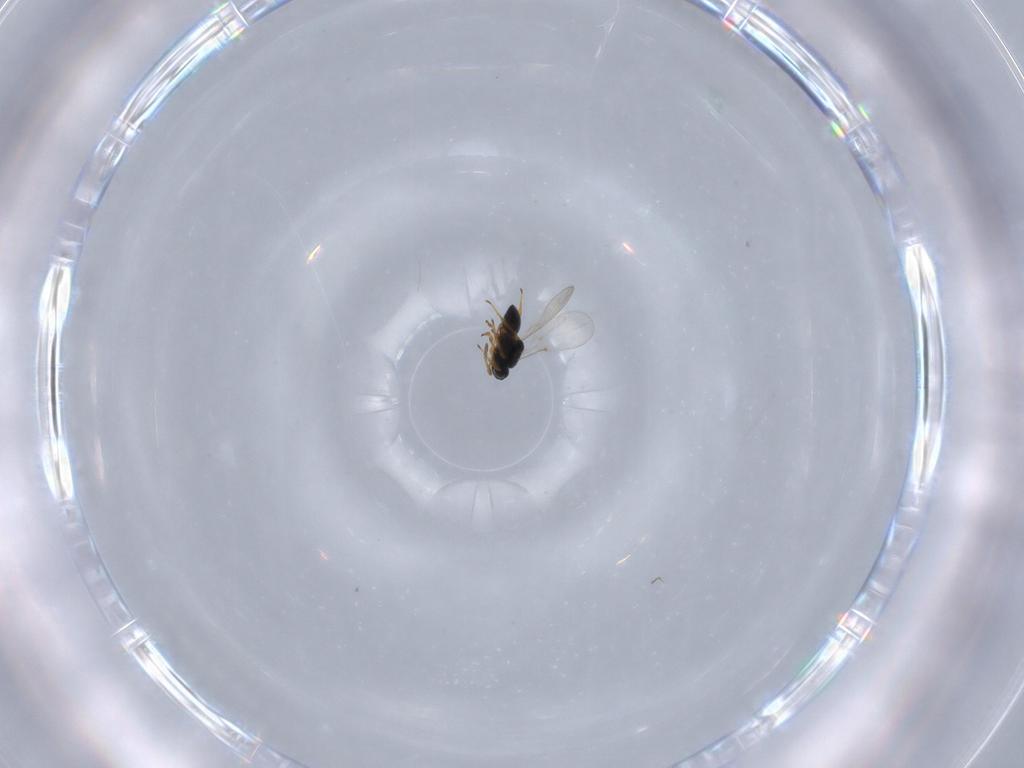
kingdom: Animalia
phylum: Arthropoda
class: Insecta
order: Hymenoptera
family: Platygastridae
